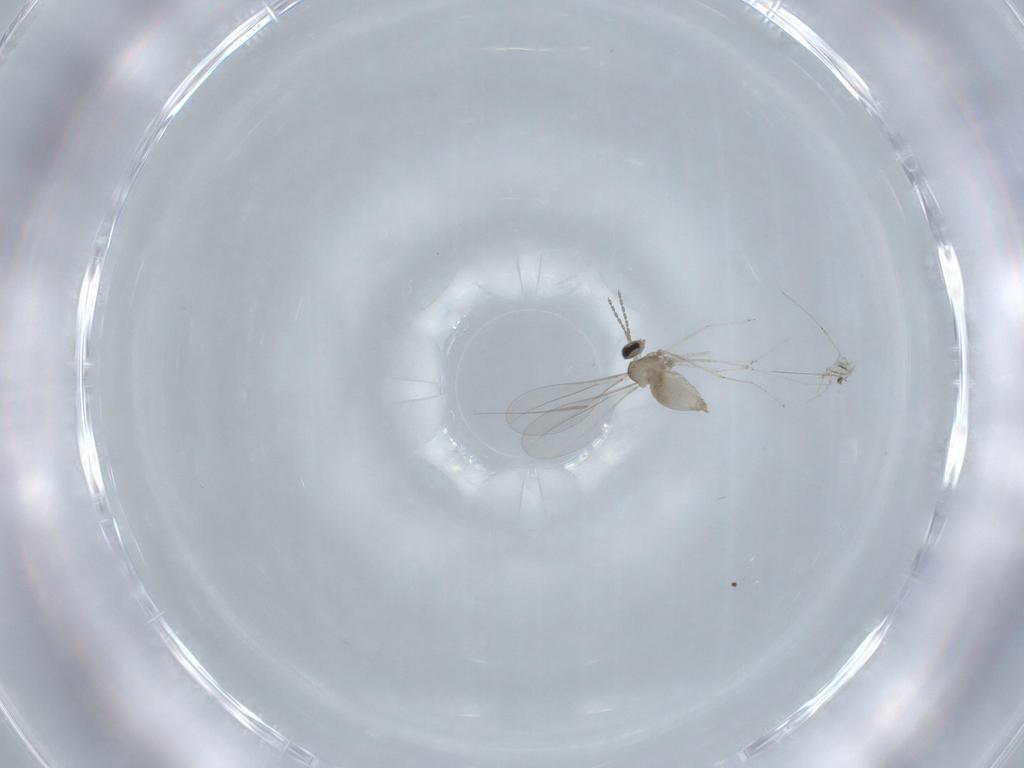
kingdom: Animalia
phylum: Arthropoda
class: Insecta
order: Diptera
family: Cecidomyiidae
